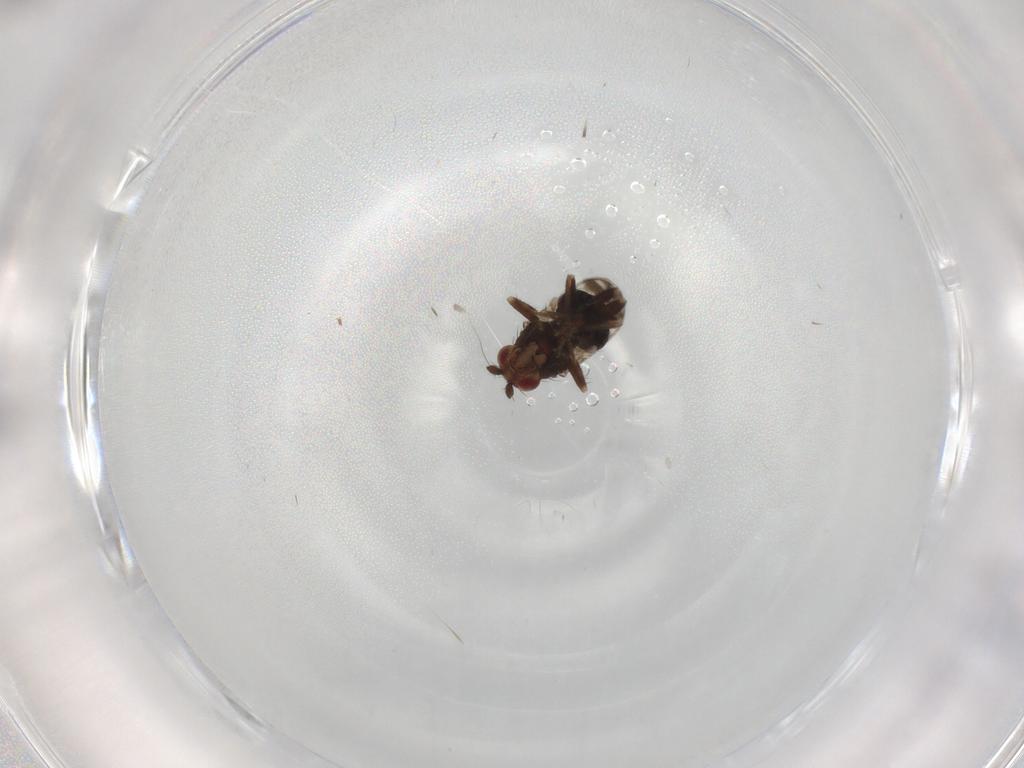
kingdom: Animalia
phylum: Arthropoda
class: Insecta
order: Diptera
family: Sphaeroceridae
